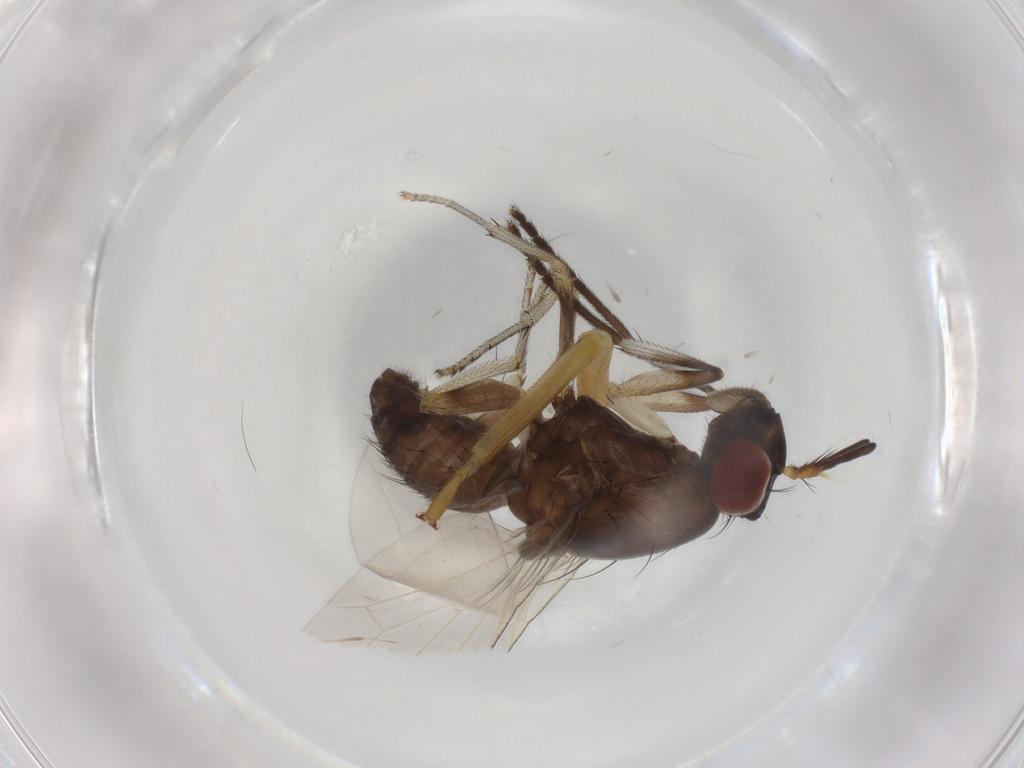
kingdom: Animalia
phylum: Arthropoda
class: Insecta
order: Diptera
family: Lauxaniidae
